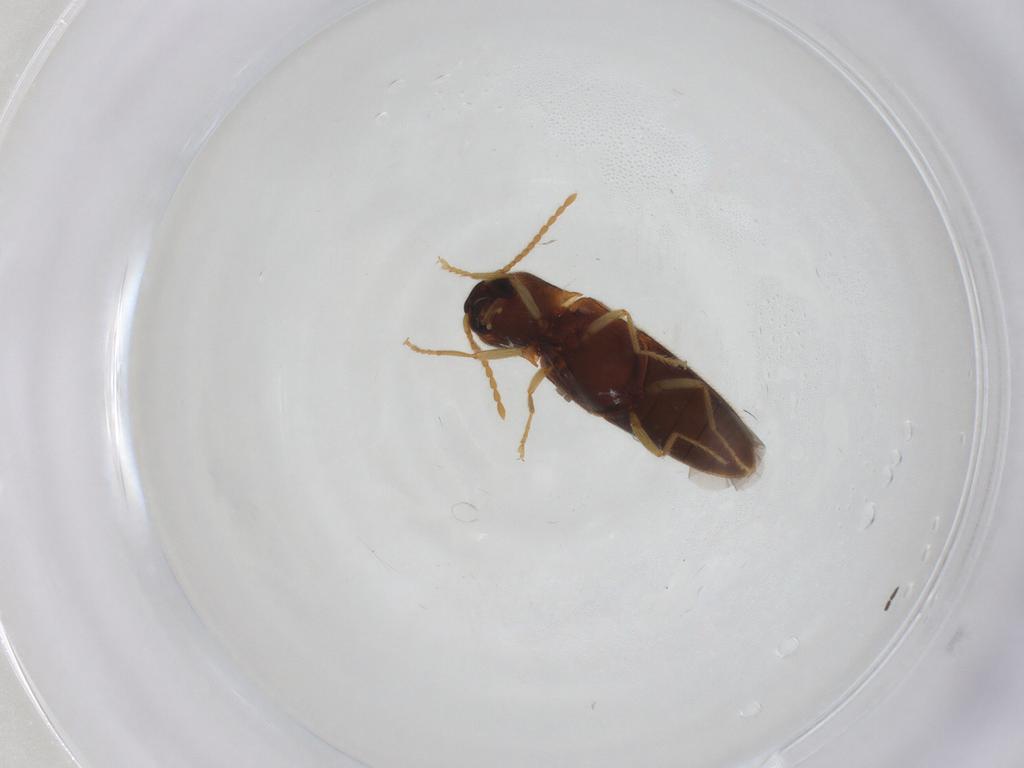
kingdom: Animalia
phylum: Arthropoda
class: Insecta
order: Coleoptera
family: Elateridae
